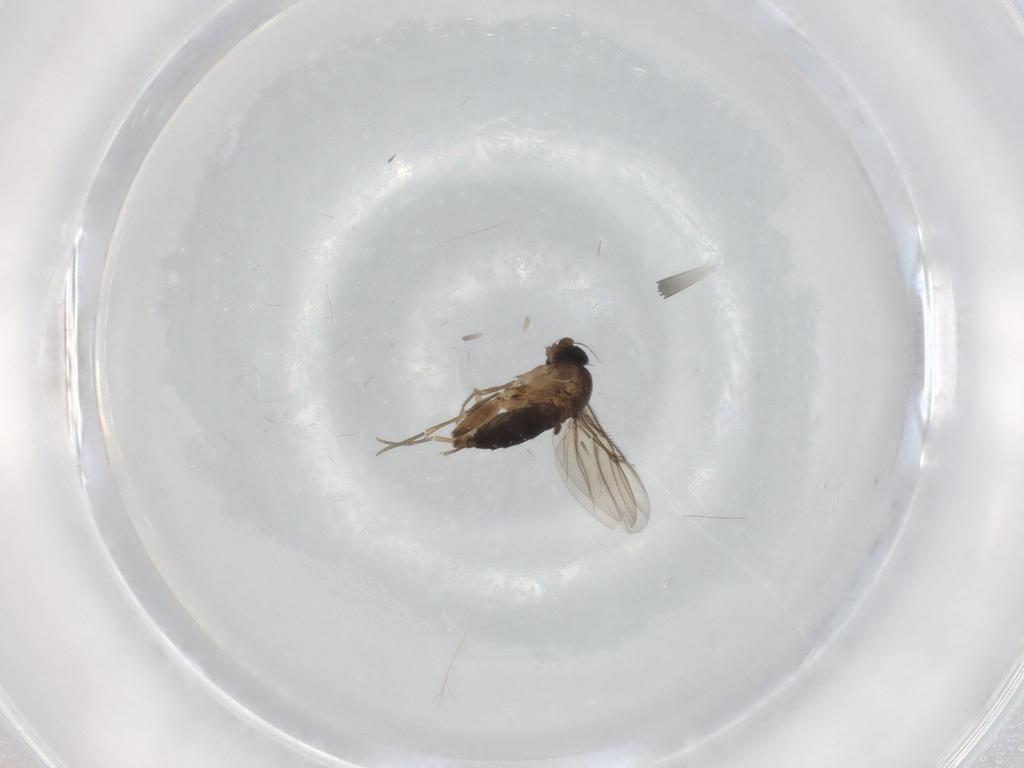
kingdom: Animalia
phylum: Arthropoda
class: Insecta
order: Diptera
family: Phoridae
